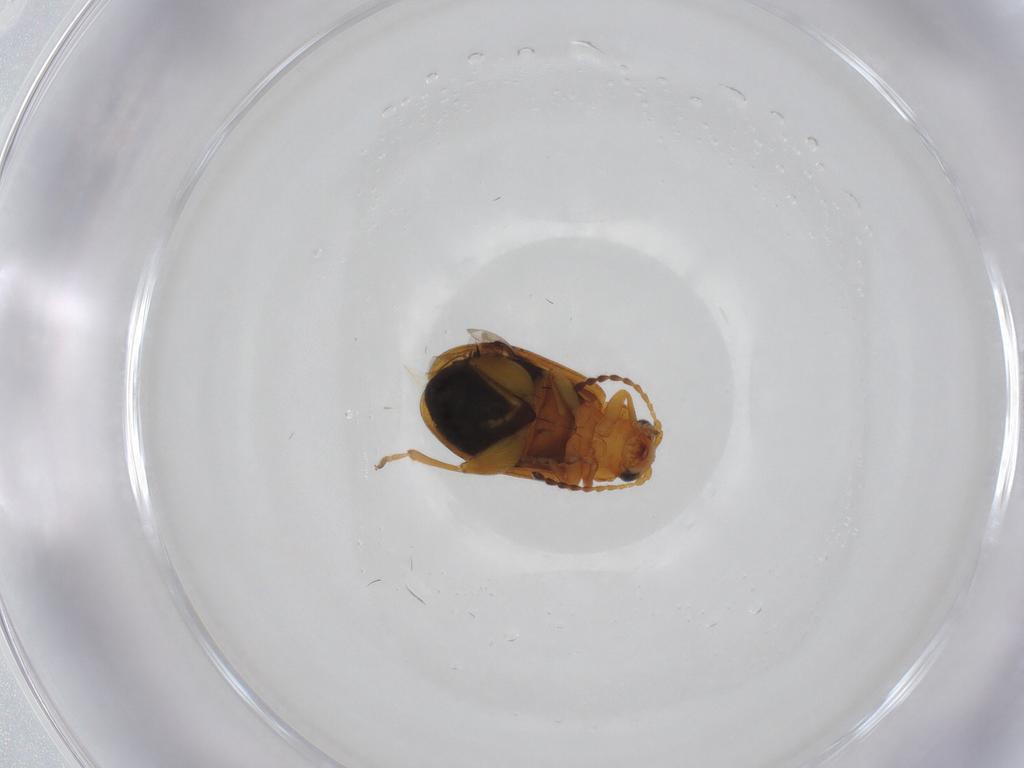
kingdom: Animalia
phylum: Arthropoda
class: Insecta
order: Coleoptera
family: Chrysomelidae
